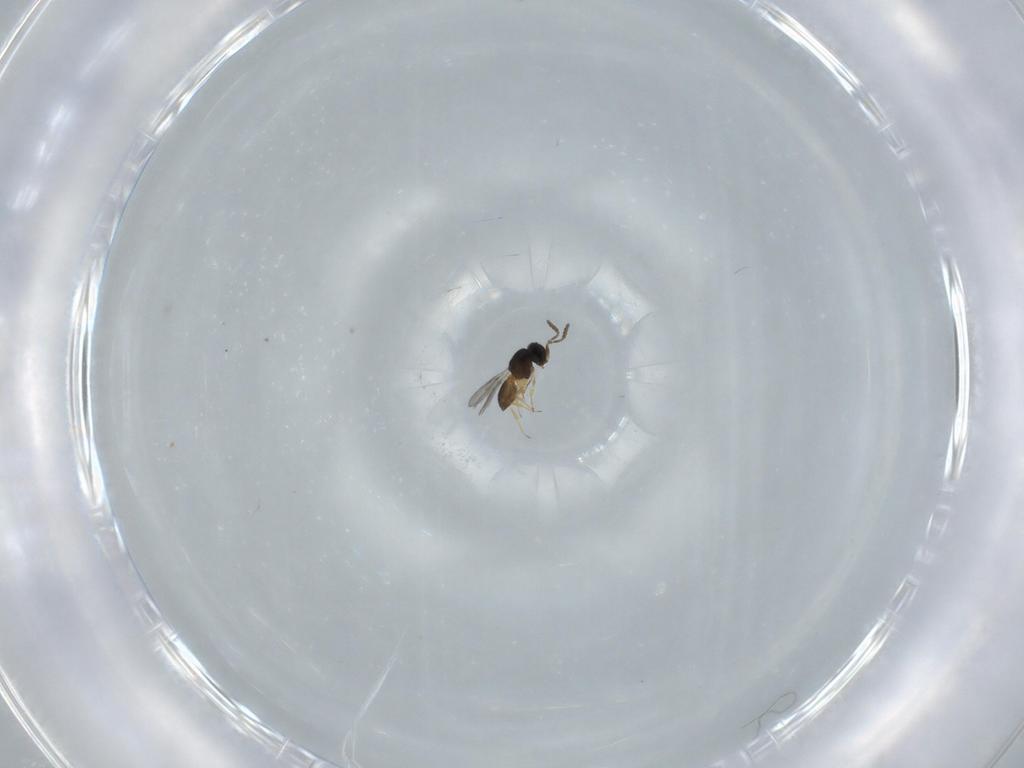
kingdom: Animalia
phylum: Arthropoda
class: Insecta
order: Hymenoptera
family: Scelionidae
